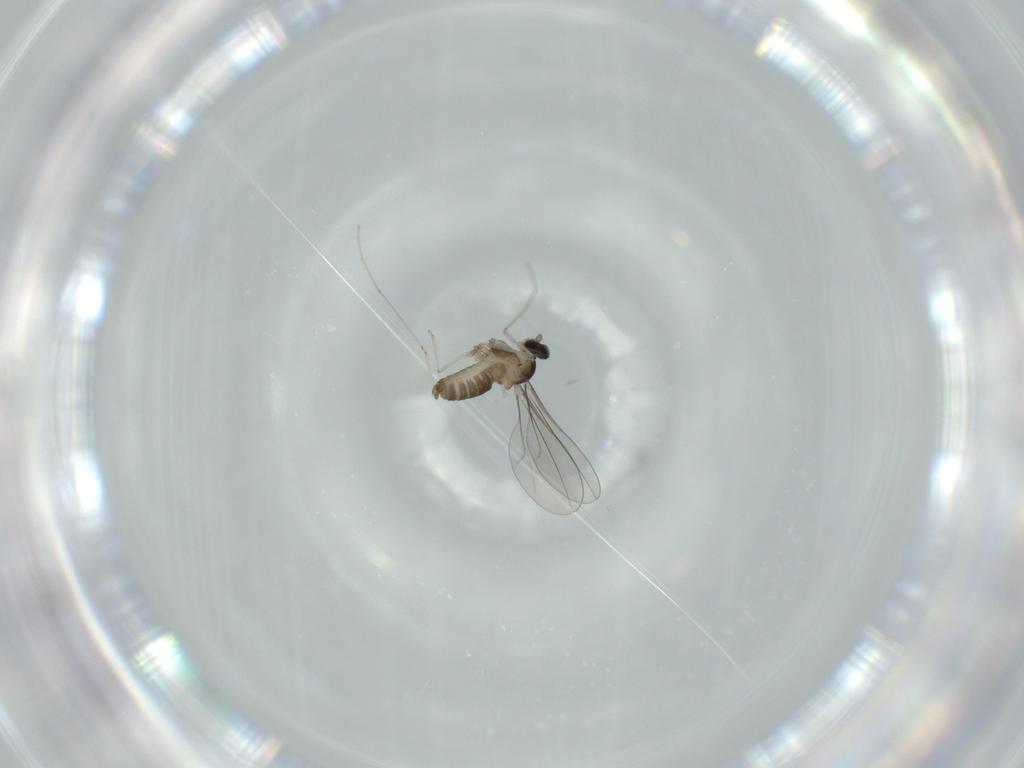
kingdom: Animalia
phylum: Arthropoda
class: Insecta
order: Diptera
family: Cecidomyiidae
